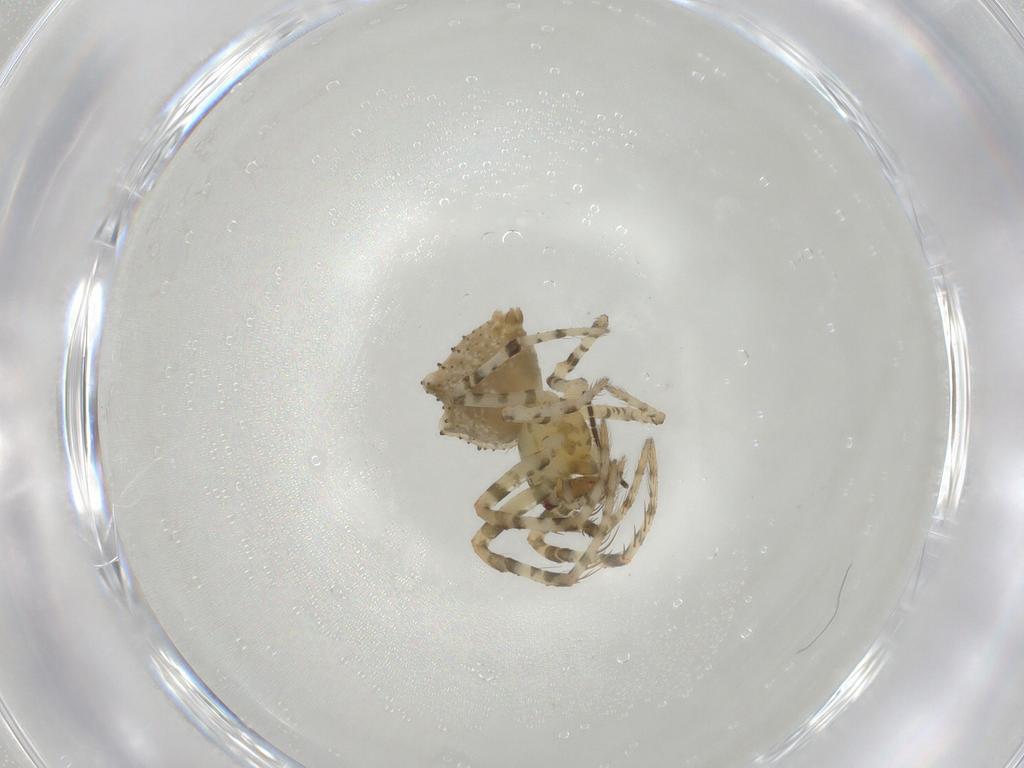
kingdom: Animalia
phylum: Arthropoda
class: Arachnida
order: Araneae
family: Mimetidae
